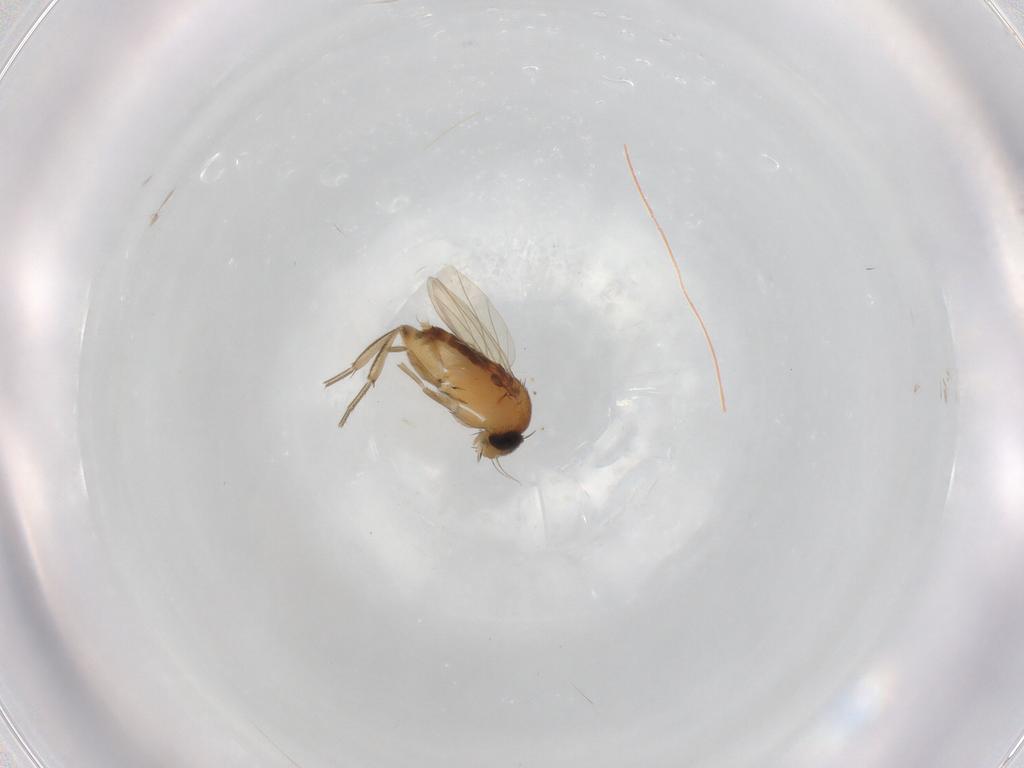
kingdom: Animalia
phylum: Arthropoda
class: Insecta
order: Diptera
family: Phoridae
